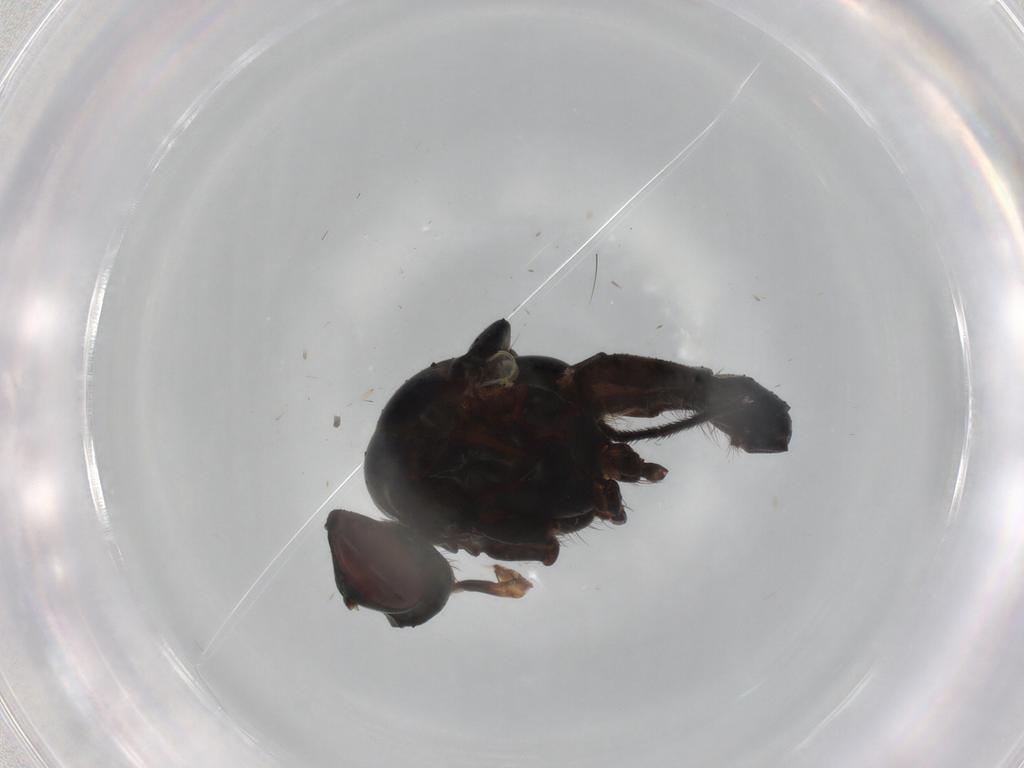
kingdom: Animalia
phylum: Arthropoda
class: Insecta
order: Diptera
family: Anthomyiidae
